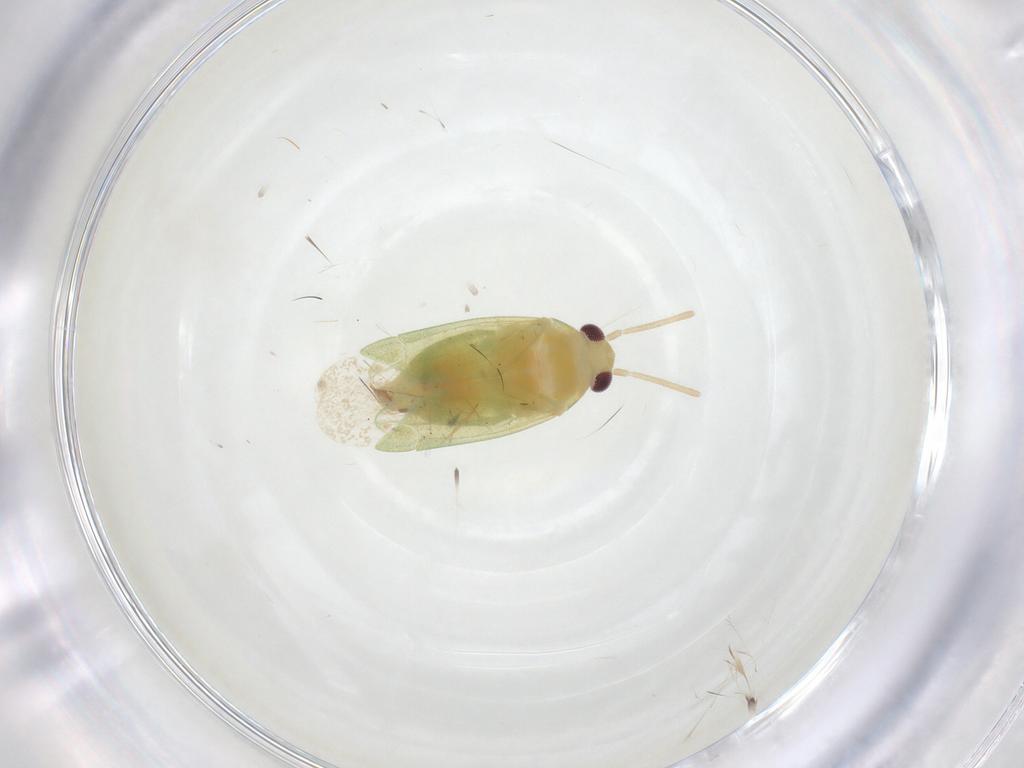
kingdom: Animalia
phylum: Arthropoda
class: Insecta
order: Hemiptera
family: Miridae
